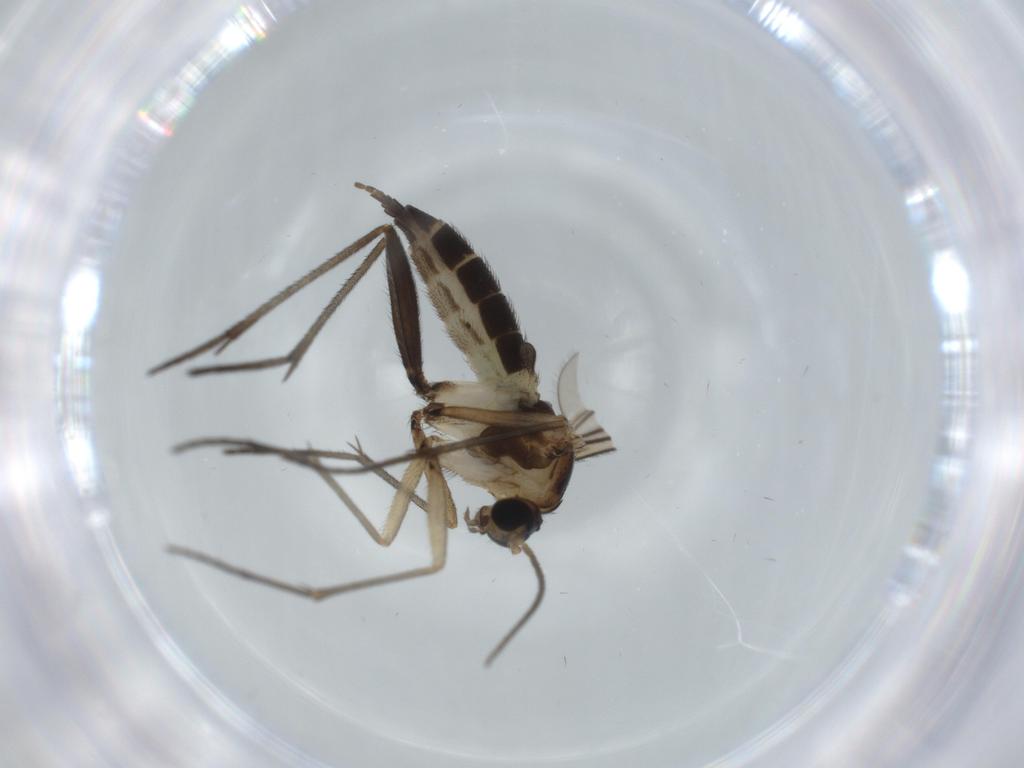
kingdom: Animalia
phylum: Arthropoda
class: Insecta
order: Diptera
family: Sciaridae
